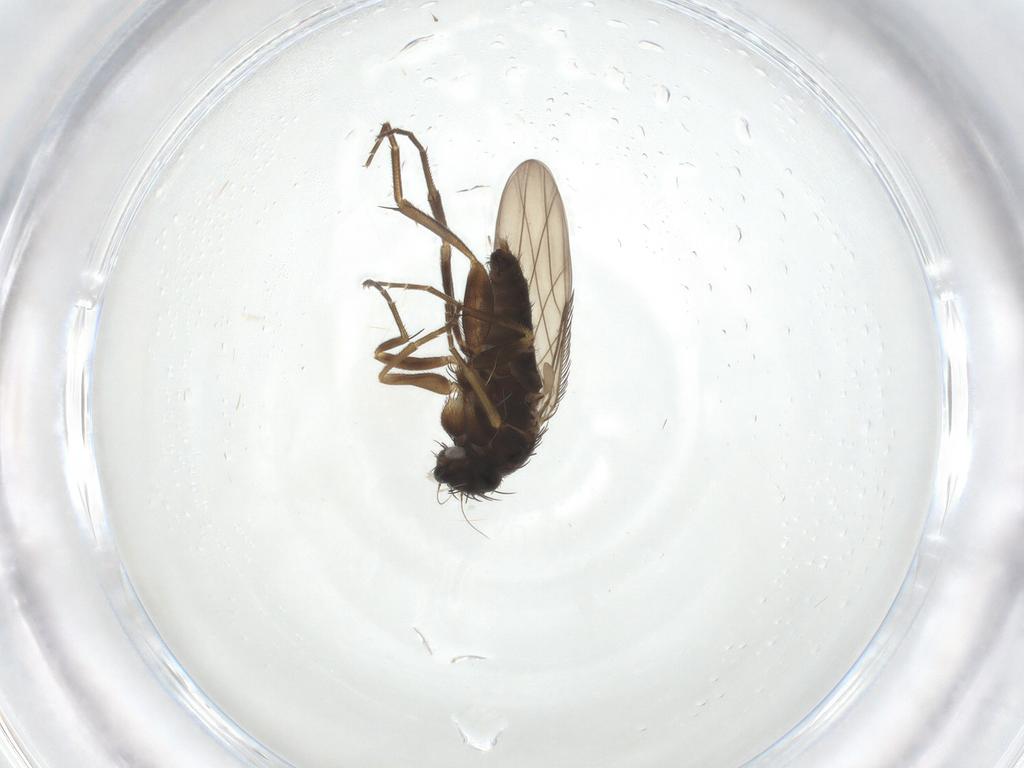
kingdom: Animalia
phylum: Arthropoda
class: Insecta
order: Diptera
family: Phoridae
